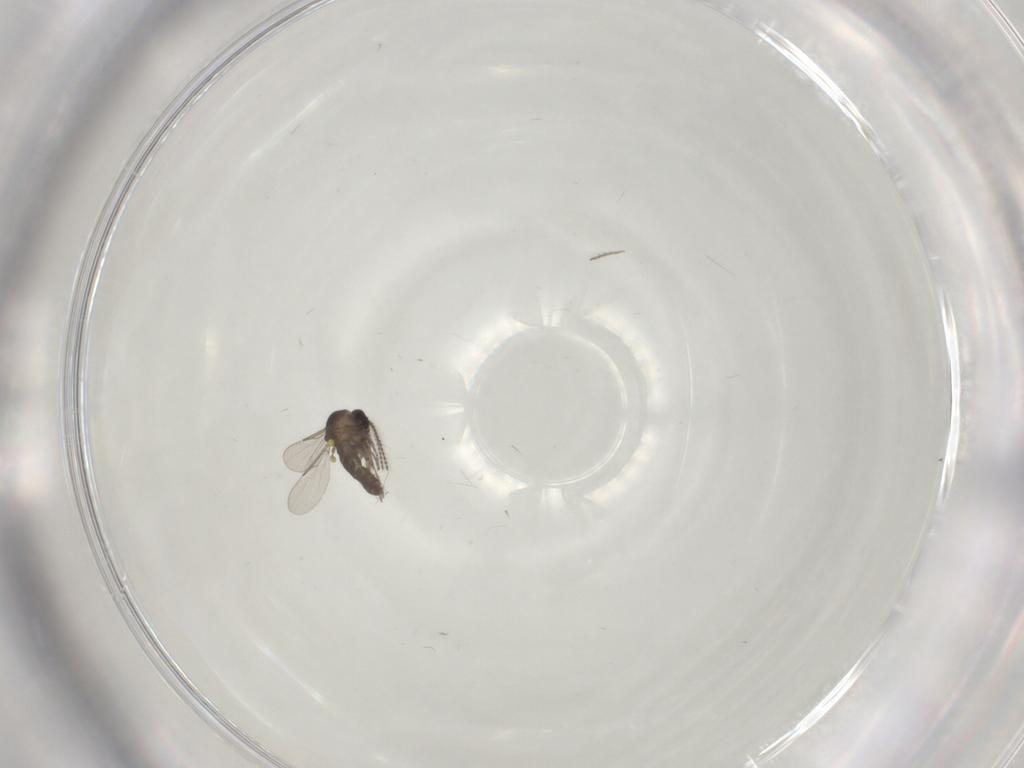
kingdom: Animalia
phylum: Arthropoda
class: Insecta
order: Diptera
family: Ceratopogonidae
